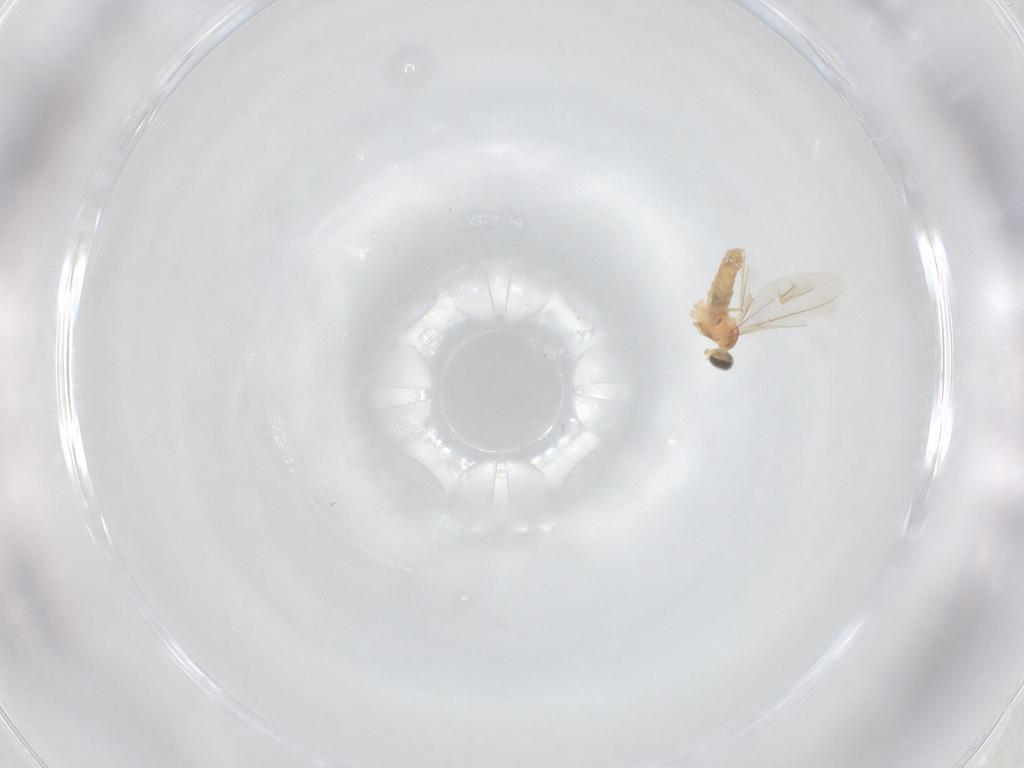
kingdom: Animalia
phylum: Arthropoda
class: Insecta
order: Diptera
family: Cecidomyiidae
